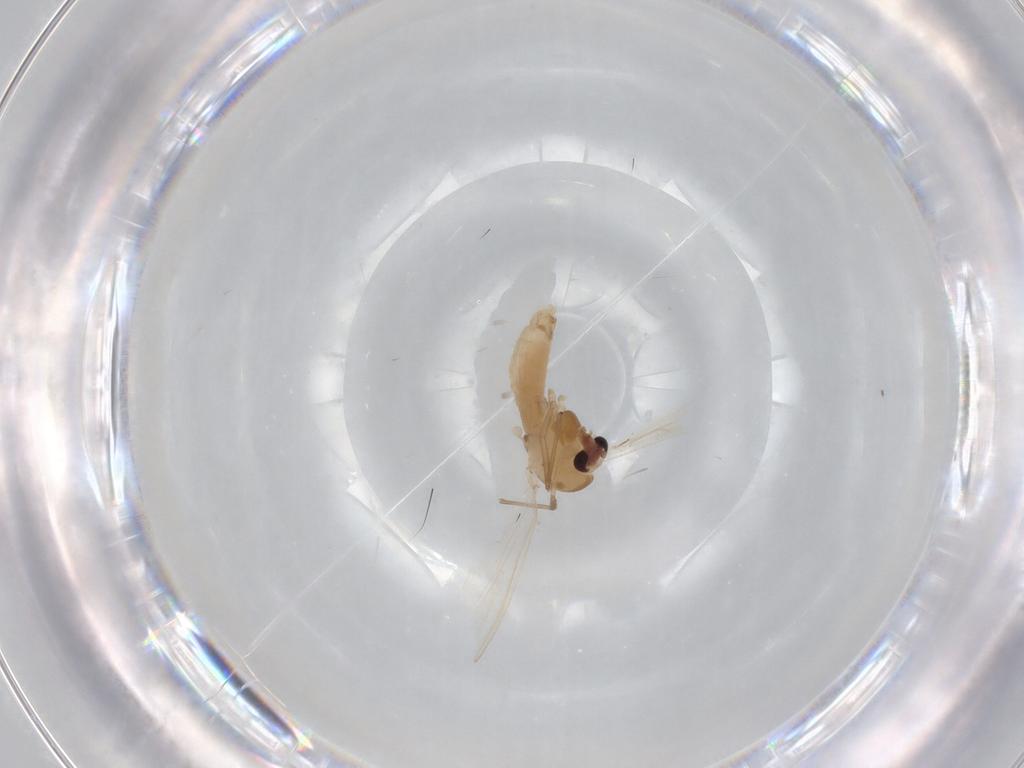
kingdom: Animalia
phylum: Arthropoda
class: Insecta
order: Diptera
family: Chironomidae
